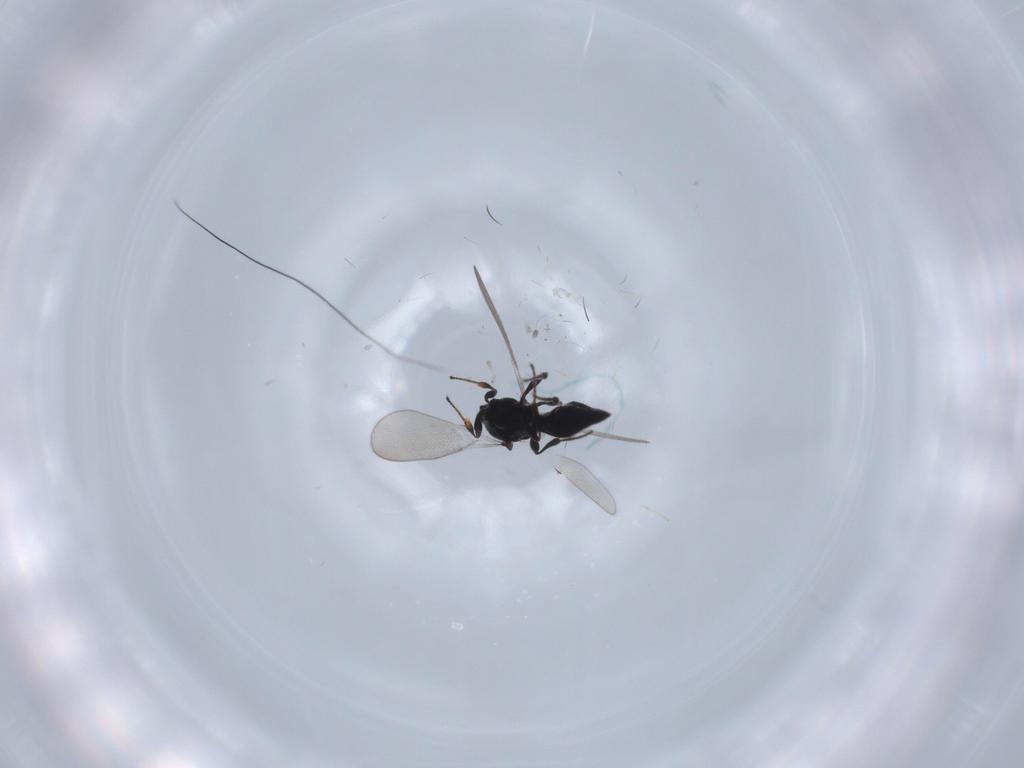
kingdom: Animalia
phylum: Arthropoda
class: Insecta
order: Hymenoptera
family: Platygastridae
